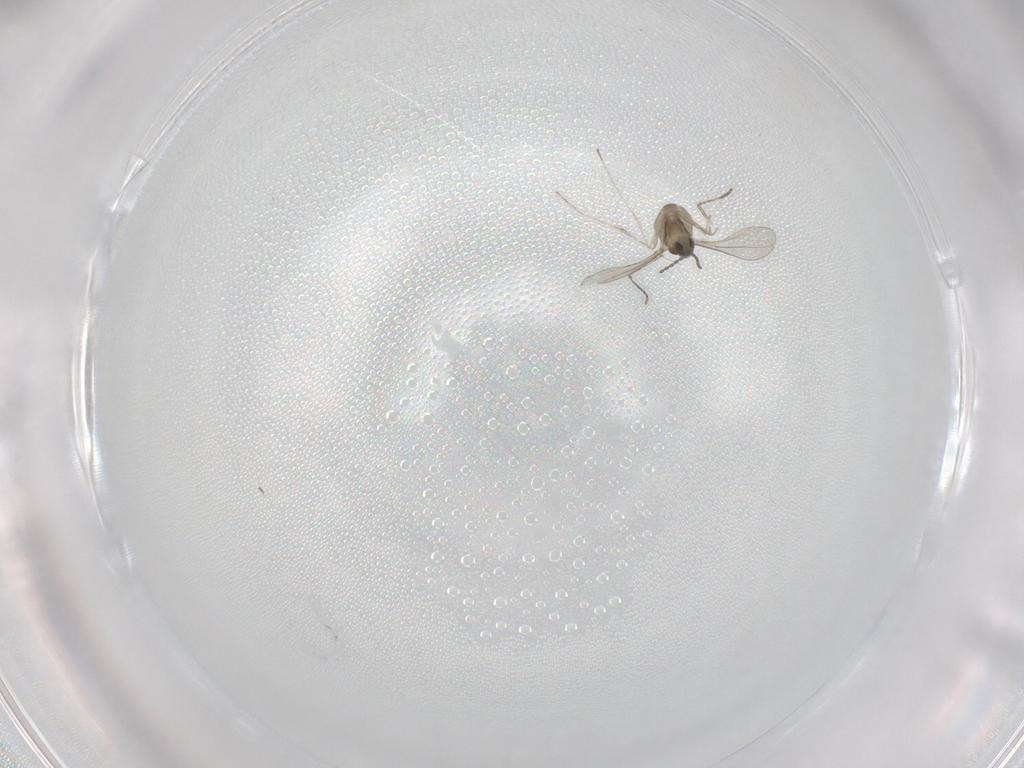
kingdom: Animalia
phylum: Arthropoda
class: Insecta
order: Diptera
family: Cecidomyiidae
